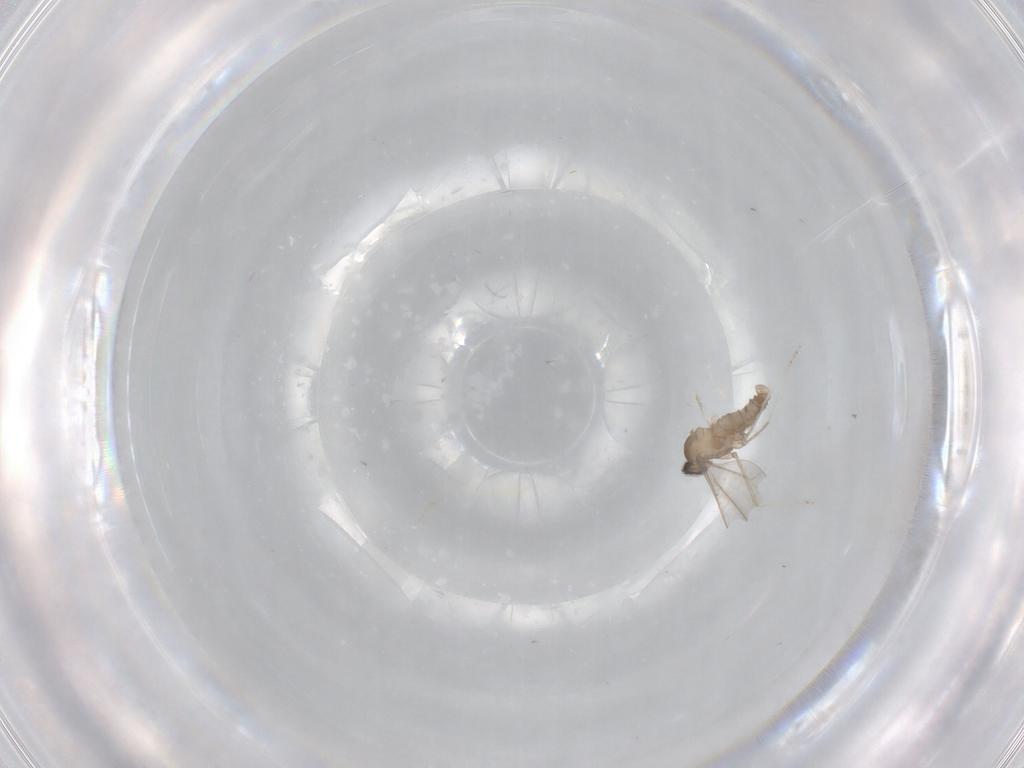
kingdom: Animalia
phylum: Arthropoda
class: Insecta
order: Diptera
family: Cecidomyiidae
